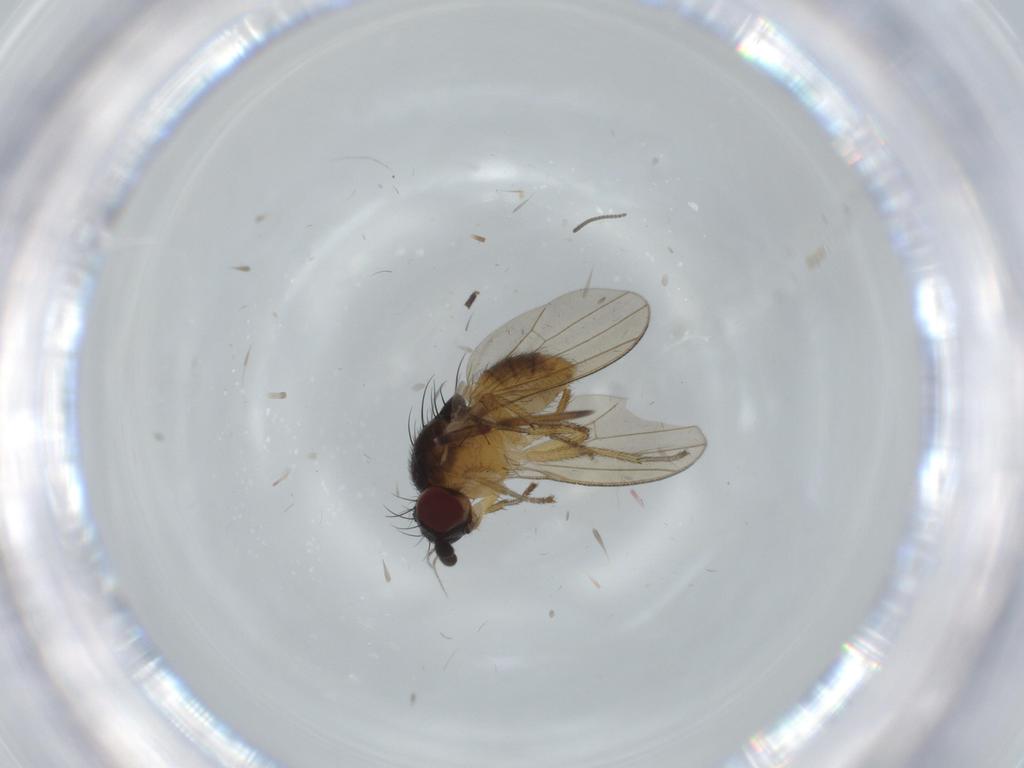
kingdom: Animalia
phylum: Arthropoda
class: Insecta
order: Diptera
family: Sciaridae
